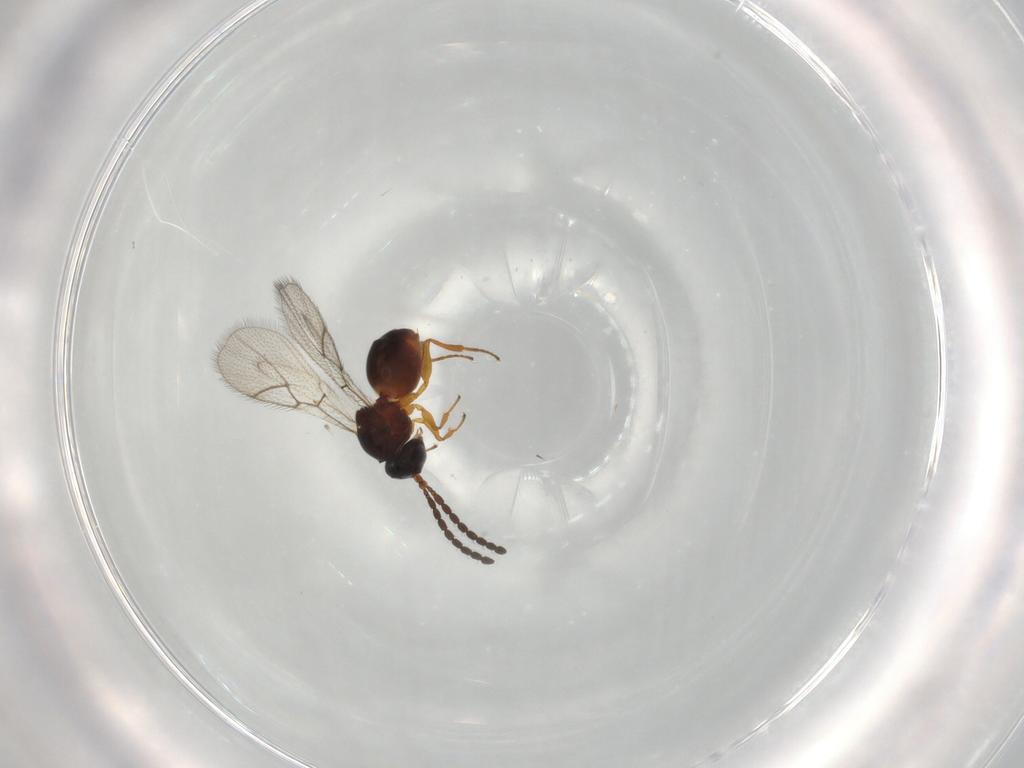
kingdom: Animalia
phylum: Arthropoda
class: Insecta
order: Hymenoptera
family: Figitidae
